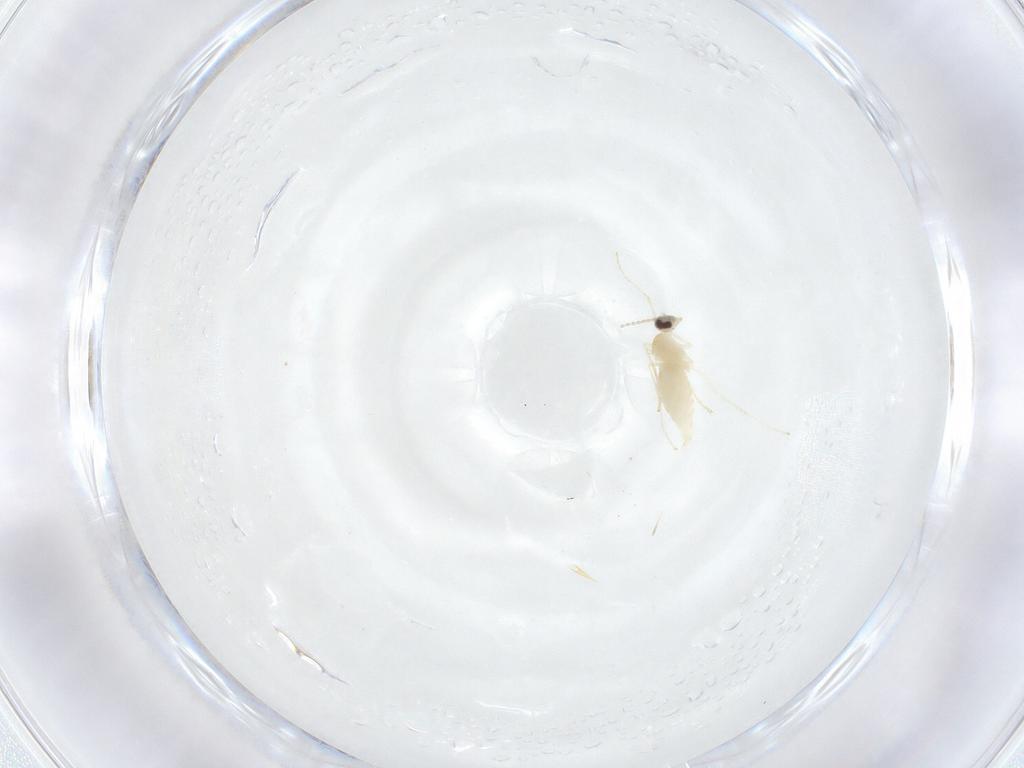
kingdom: Animalia
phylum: Arthropoda
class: Insecta
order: Diptera
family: Cecidomyiidae
